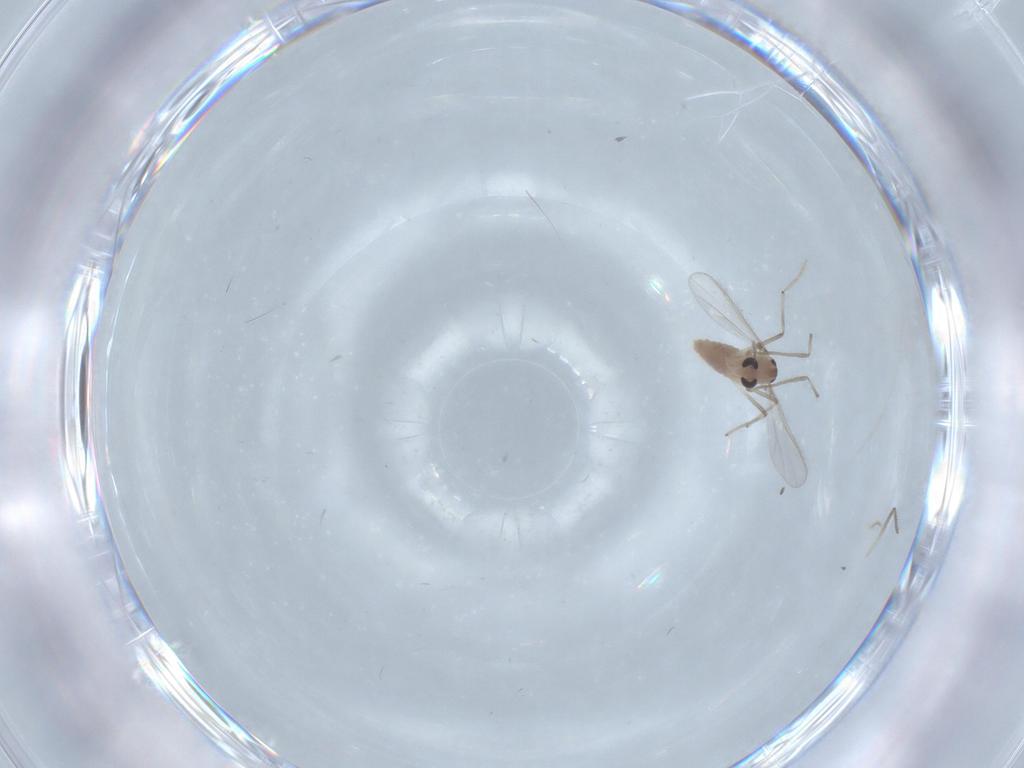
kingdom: Animalia
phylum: Arthropoda
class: Insecta
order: Diptera
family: Chironomidae
